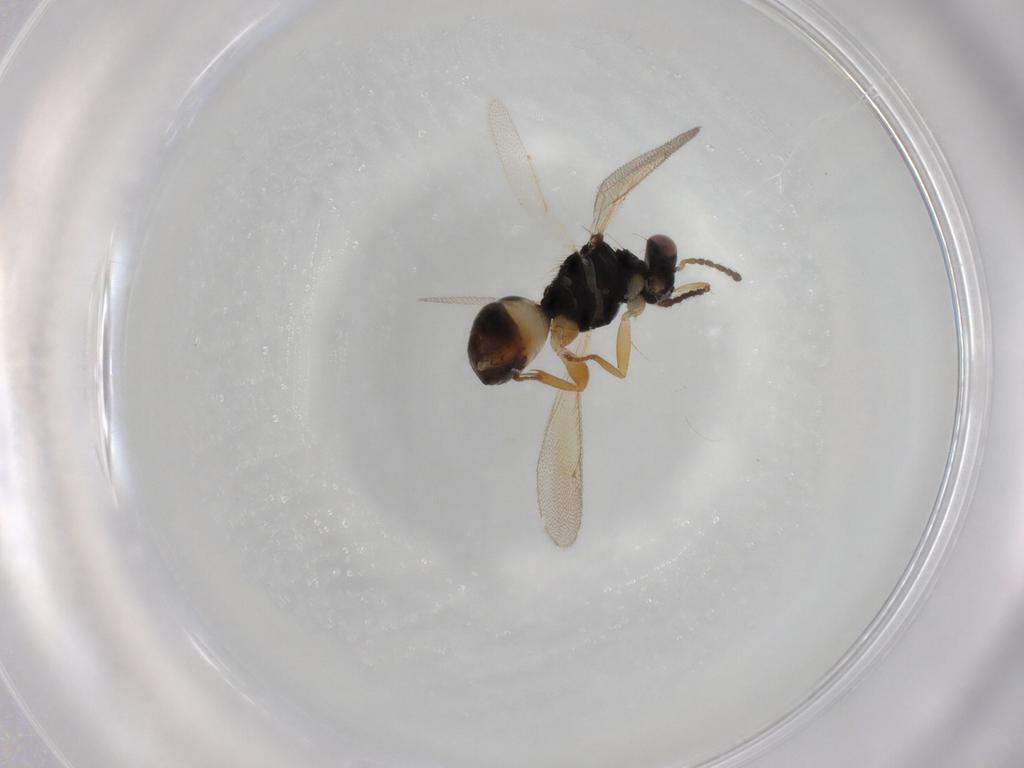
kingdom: Animalia
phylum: Arthropoda
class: Insecta
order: Hymenoptera
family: Eulophidae
